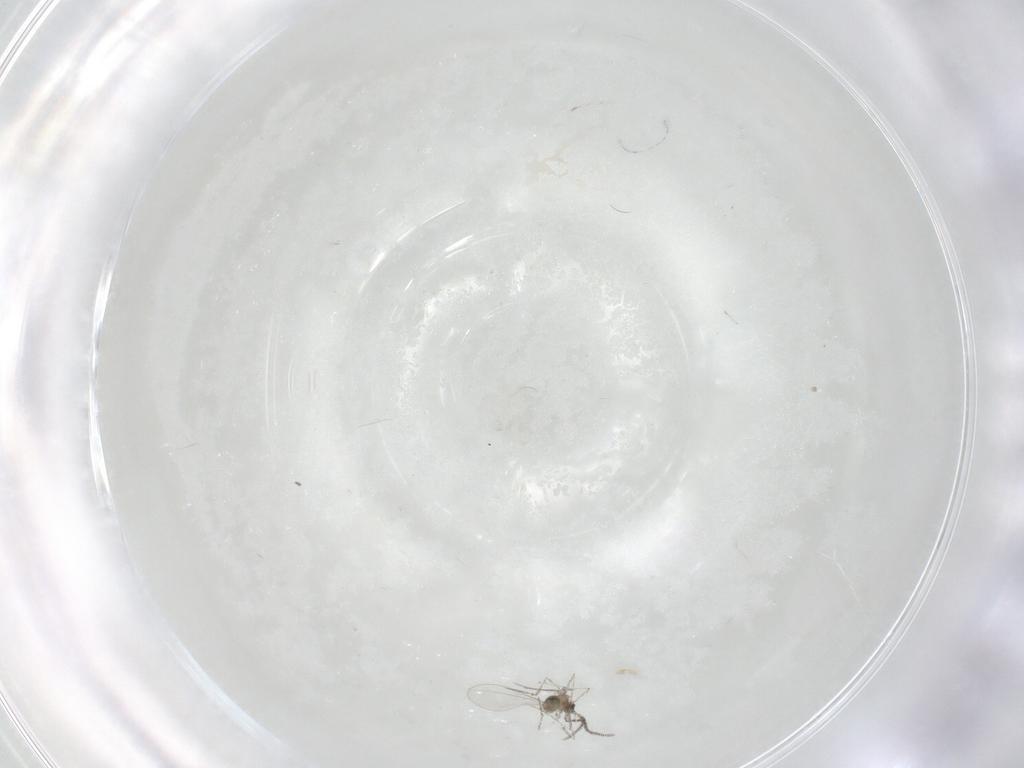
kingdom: Animalia
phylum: Arthropoda
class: Insecta
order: Diptera
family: Cecidomyiidae
